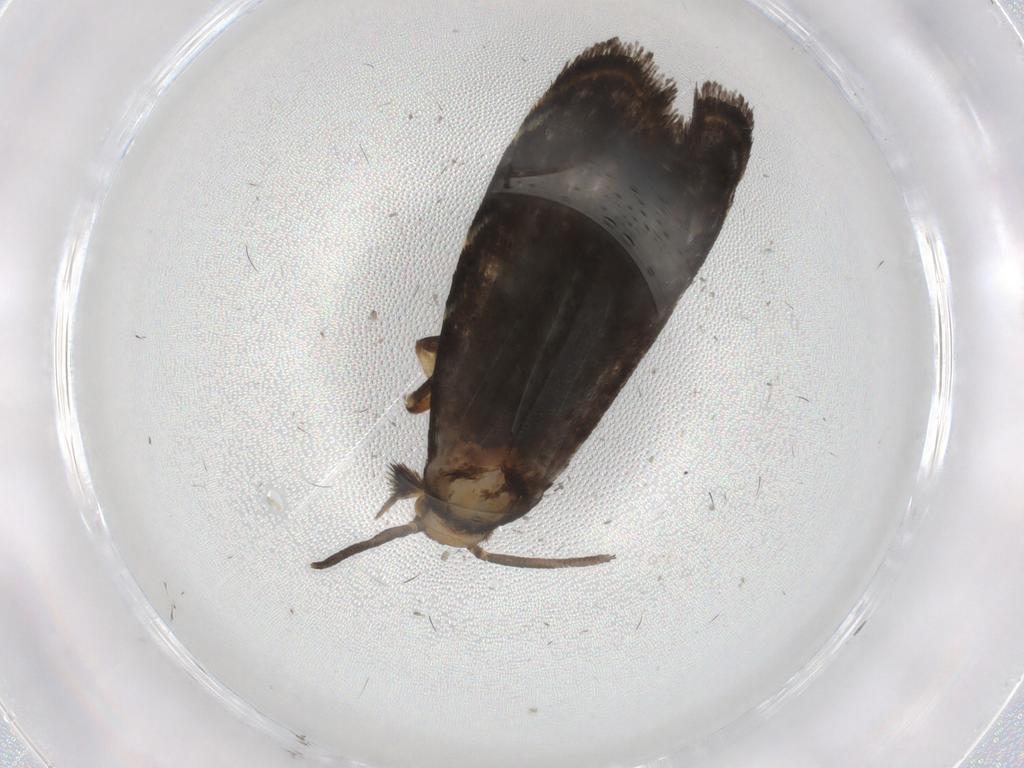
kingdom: Animalia
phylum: Arthropoda
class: Insecta
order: Lepidoptera
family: Dryadaulidae
